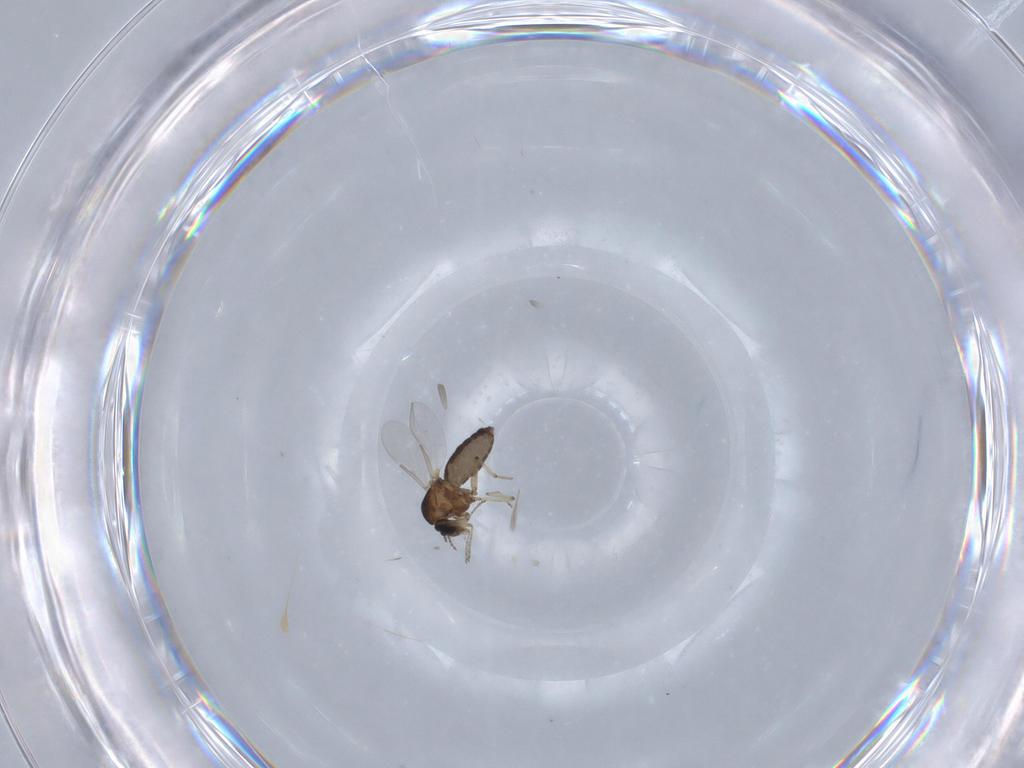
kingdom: Animalia
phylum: Arthropoda
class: Insecta
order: Diptera
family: Ceratopogonidae
